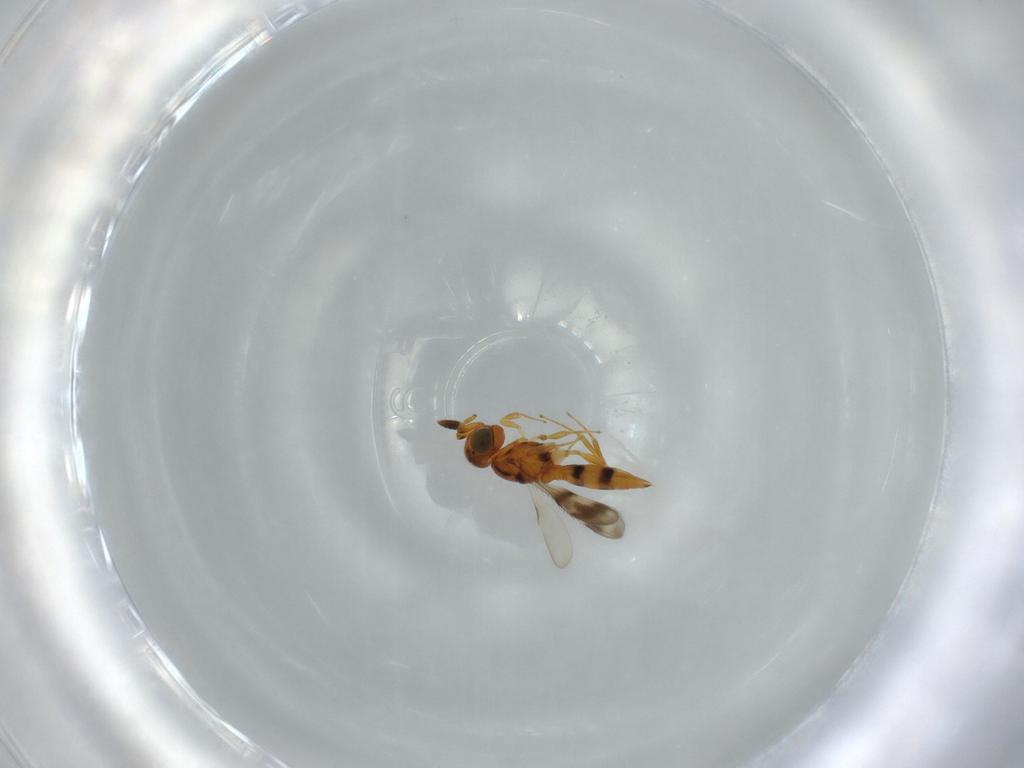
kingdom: Animalia
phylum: Arthropoda
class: Insecta
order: Hymenoptera
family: Scelionidae
